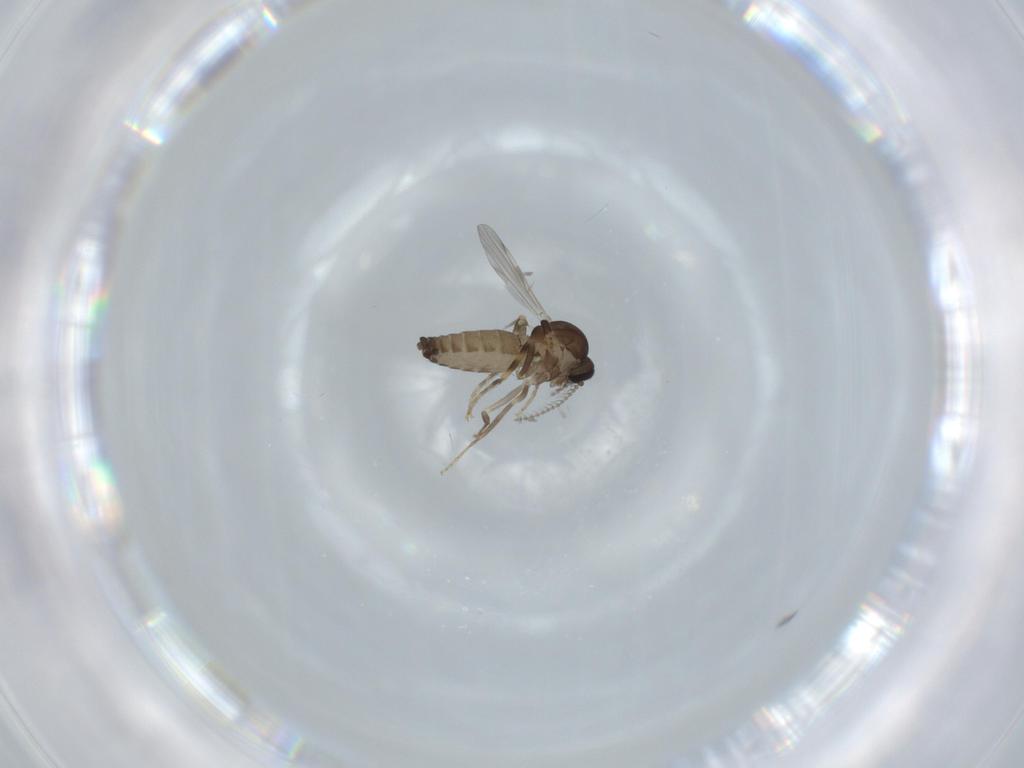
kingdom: Animalia
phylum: Arthropoda
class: Insecta
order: Diptera
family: Ceratopogonidae
